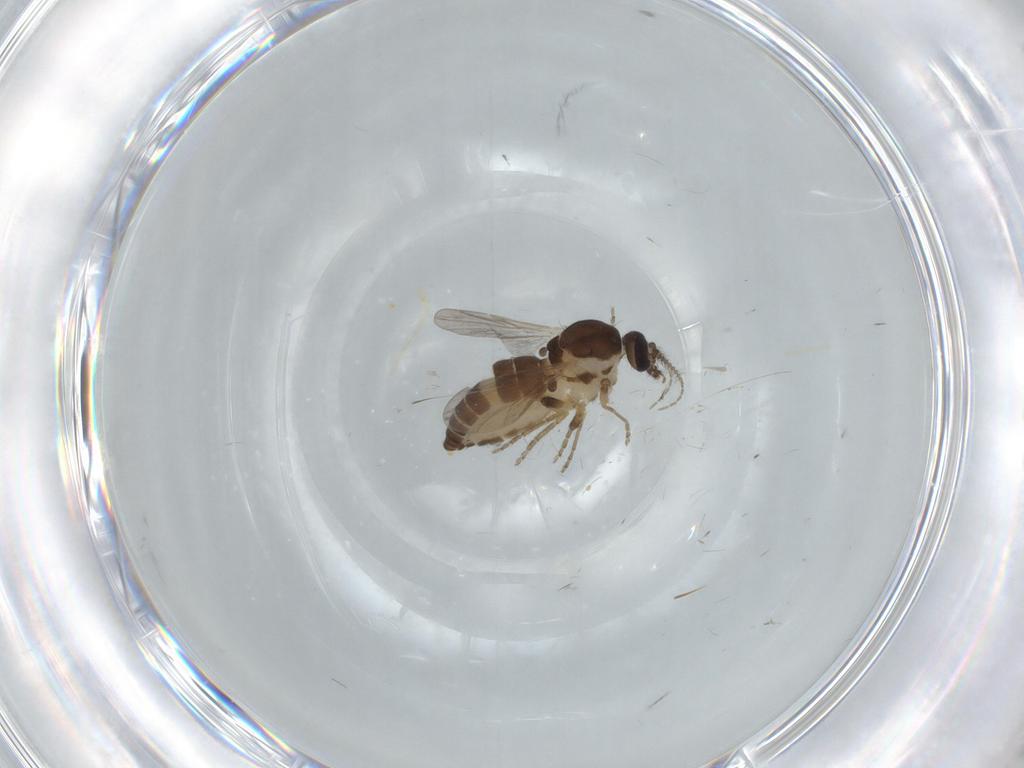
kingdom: Animalia
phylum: Arthropoda
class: Insecta
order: Diptera
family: Ceratopogonidae
